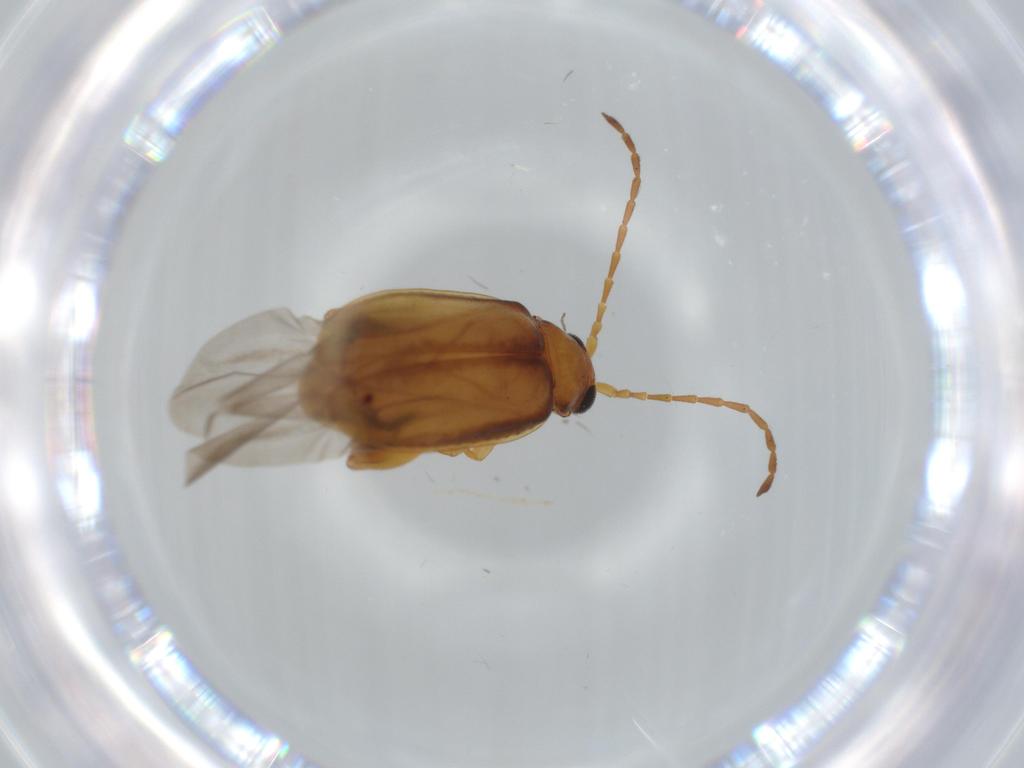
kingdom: Animalia
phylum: Arthropoda
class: Insecta
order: Coleoptera
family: Chrysomelidae
